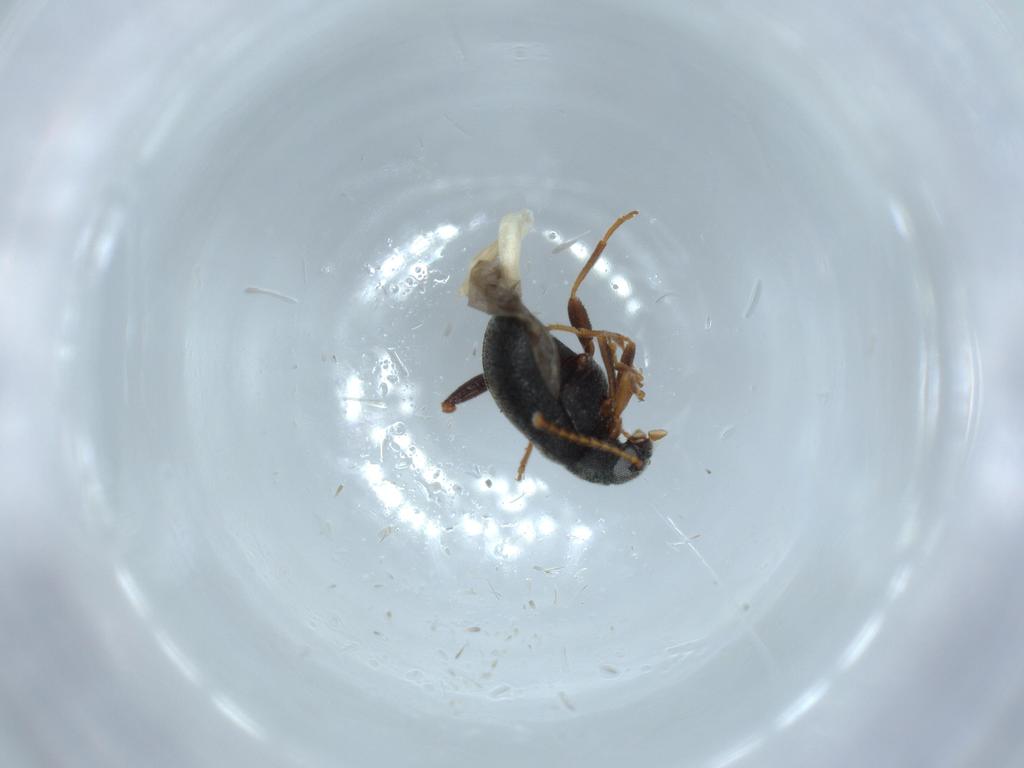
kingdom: Animalia
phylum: Arthropoda
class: Insecta
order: Coleoptera
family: Aderidae
